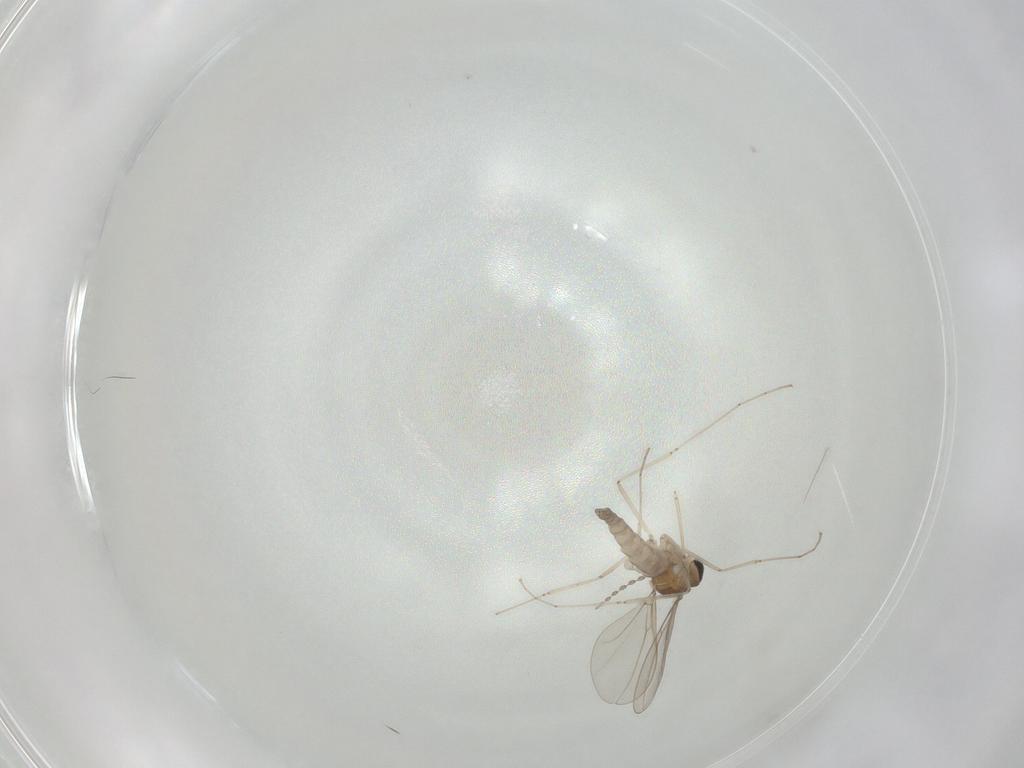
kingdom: Animalia
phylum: Arthropoda
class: Insecta
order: Diptera
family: Cecidomyiidae
